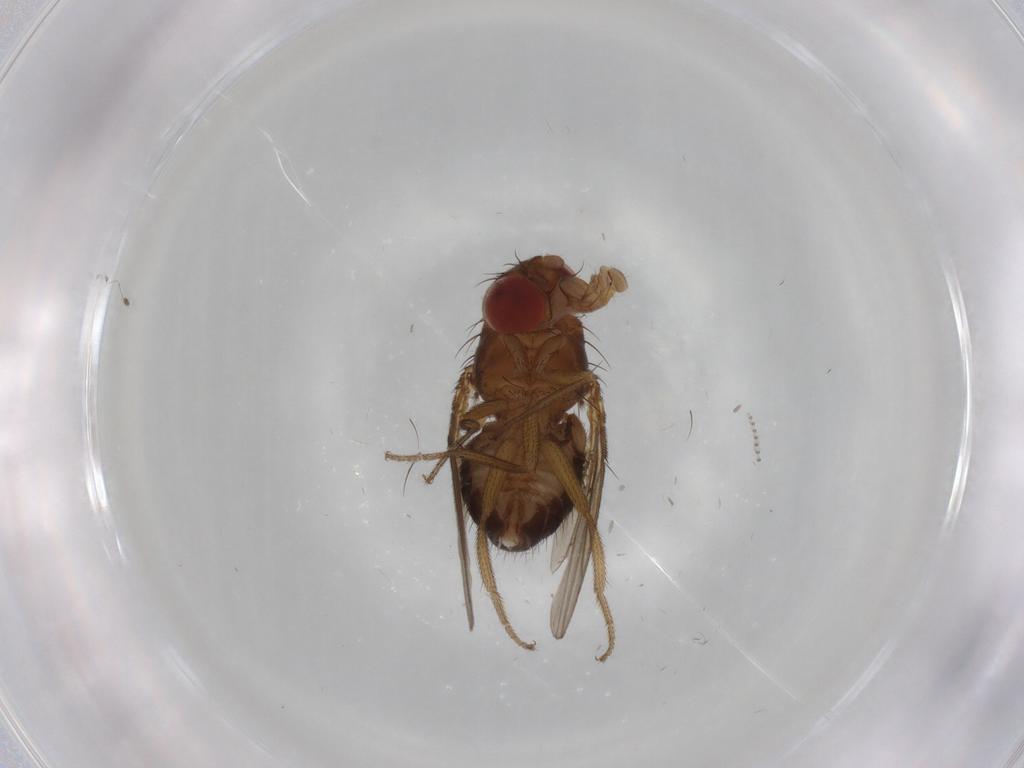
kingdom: Animalia
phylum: Arthropoda
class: Insecta
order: Diptera
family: Drosophilidae
